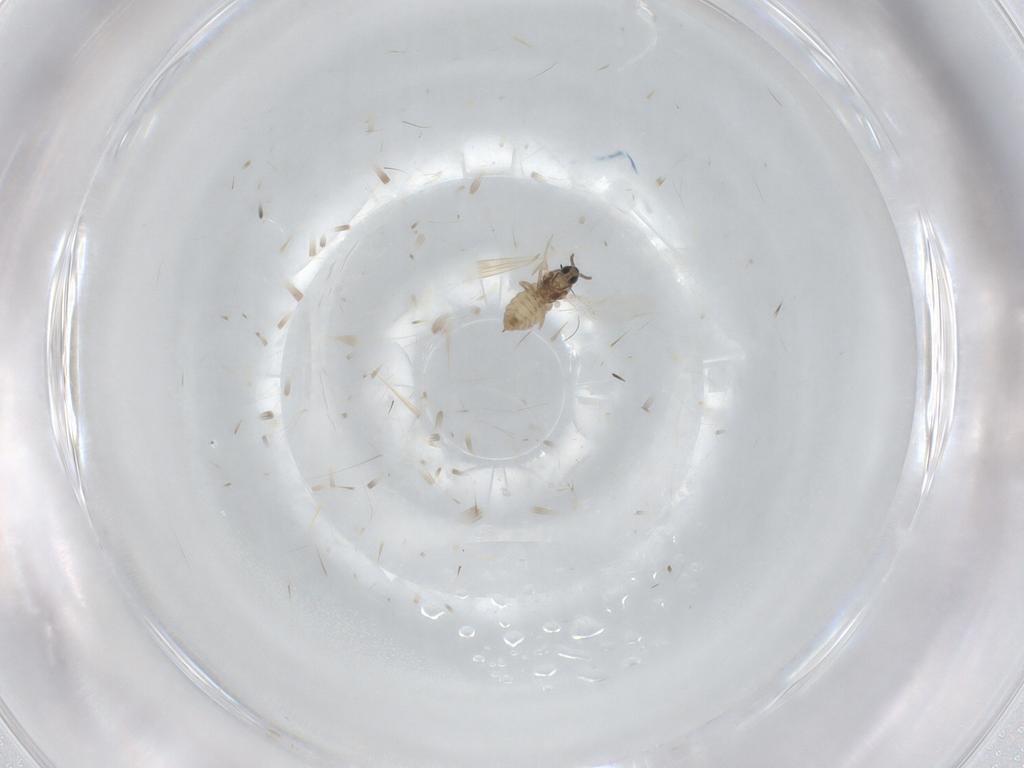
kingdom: Animalia
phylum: Arthropoda
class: Insecta
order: Diptera
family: Cecidomyiidae
